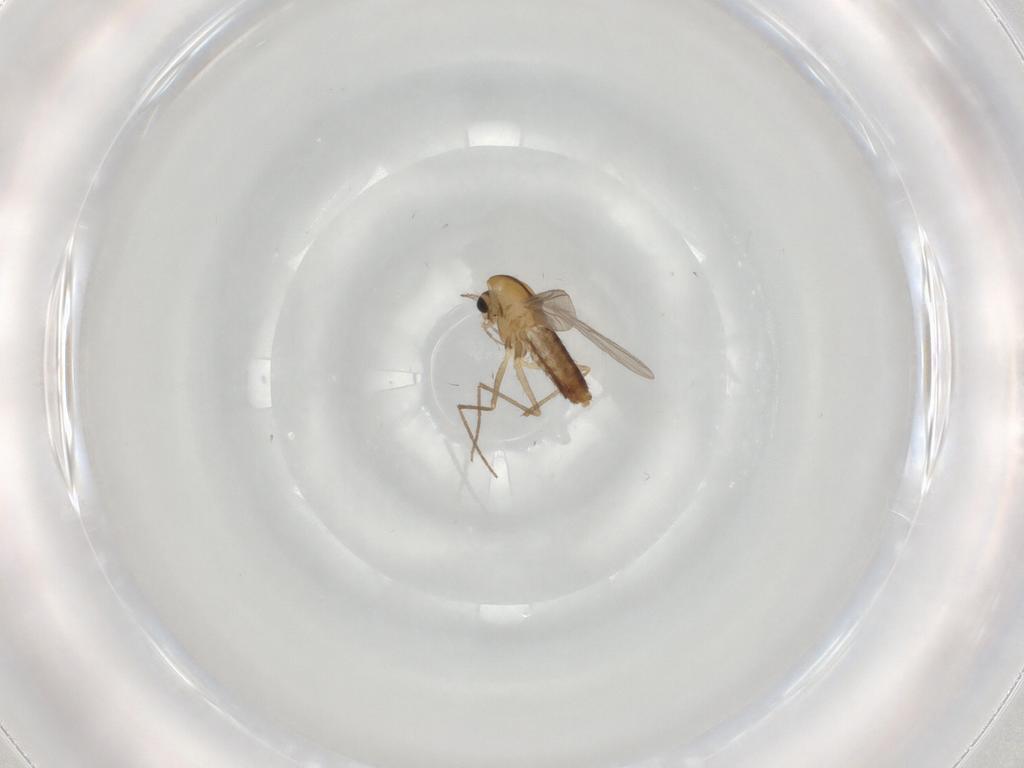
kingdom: Animalia
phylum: Arthropoda
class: Insecta
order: Diptera
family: Chironomidae
